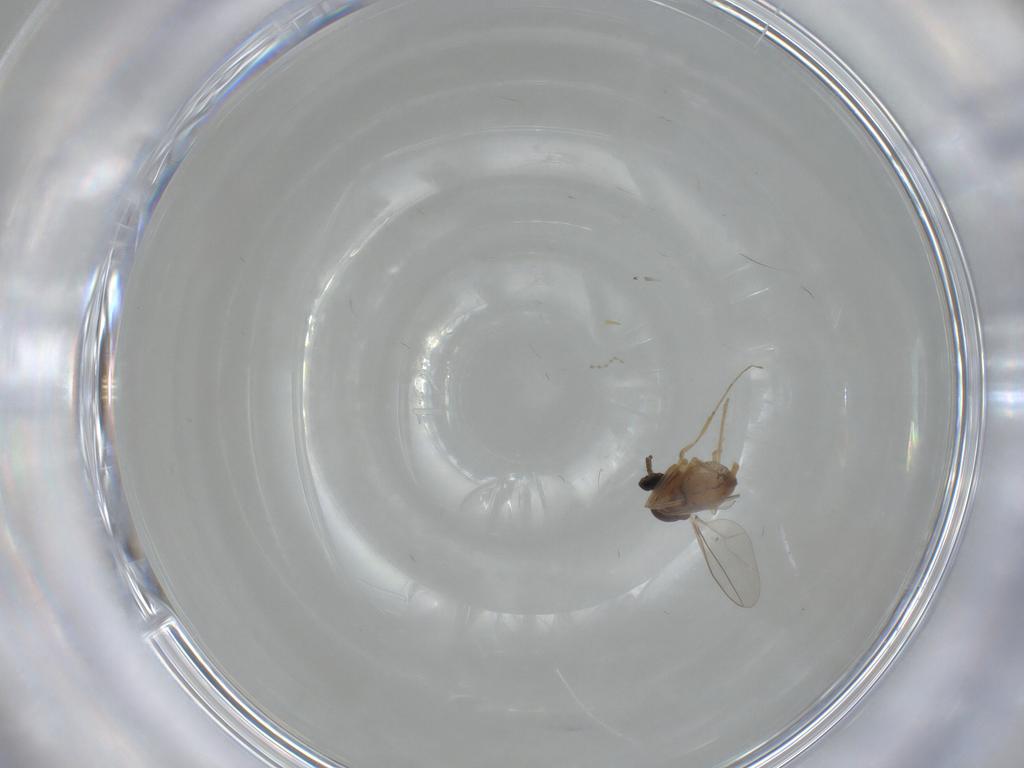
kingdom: Animalia
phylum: Arthropoda
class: Insecta
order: Diptera
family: Cecidomyiidae
